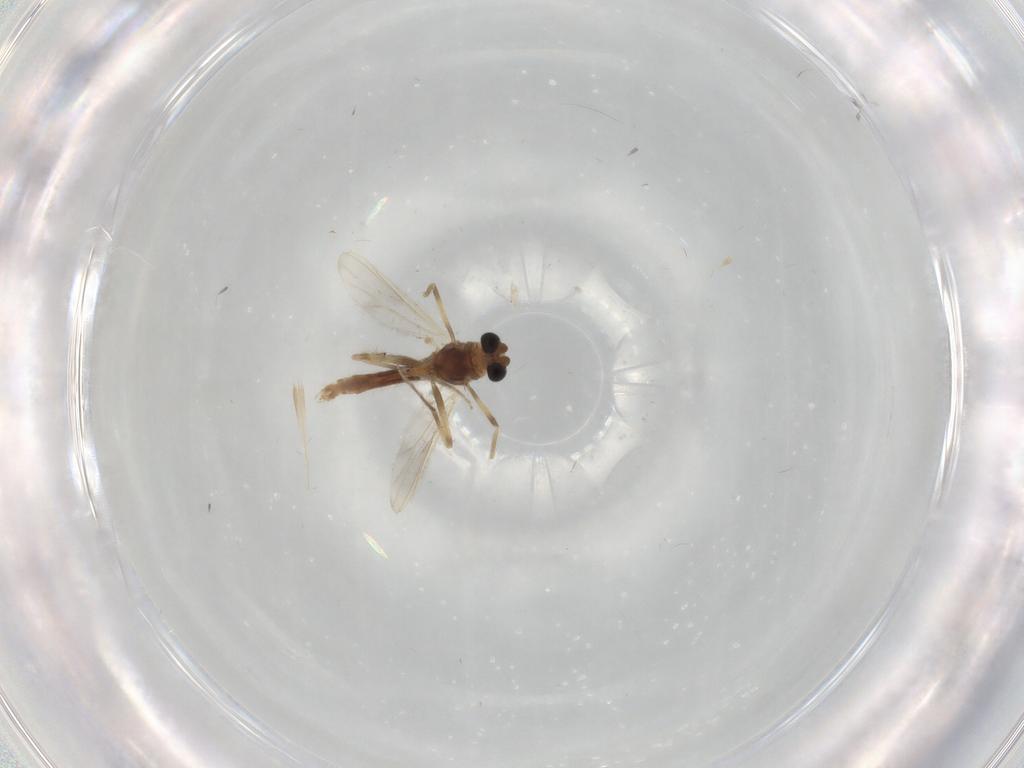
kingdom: Animalia
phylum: Arthropoda
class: Insecta
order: Diptera
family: Chironomidae
